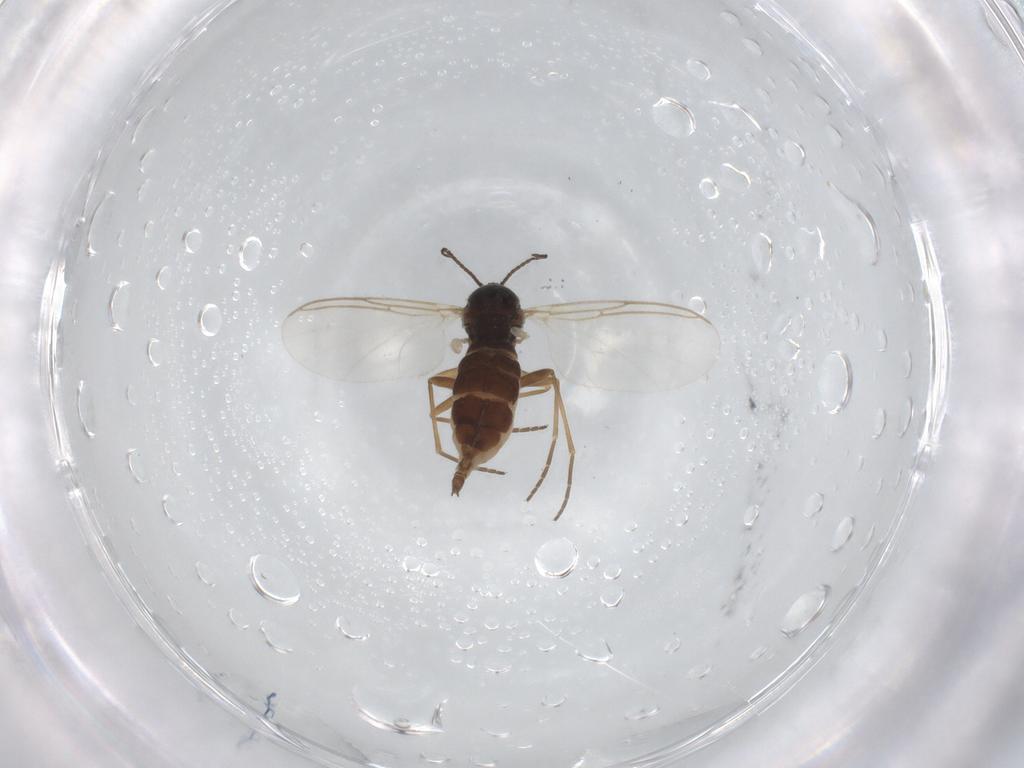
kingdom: Animalia
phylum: Arthropoda
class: Insecta
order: Diptera
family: Sciaridae
